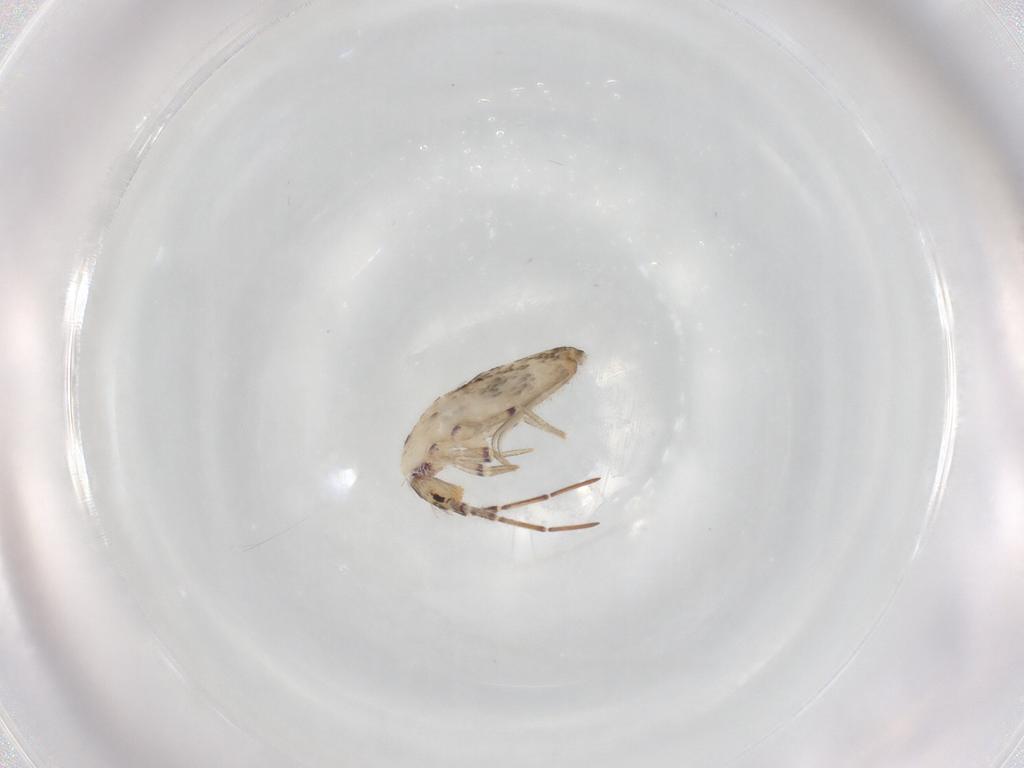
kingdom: Animalia
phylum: Arthropoda
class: Collembola
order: Entomobryomorpha
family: Entomobryidae
